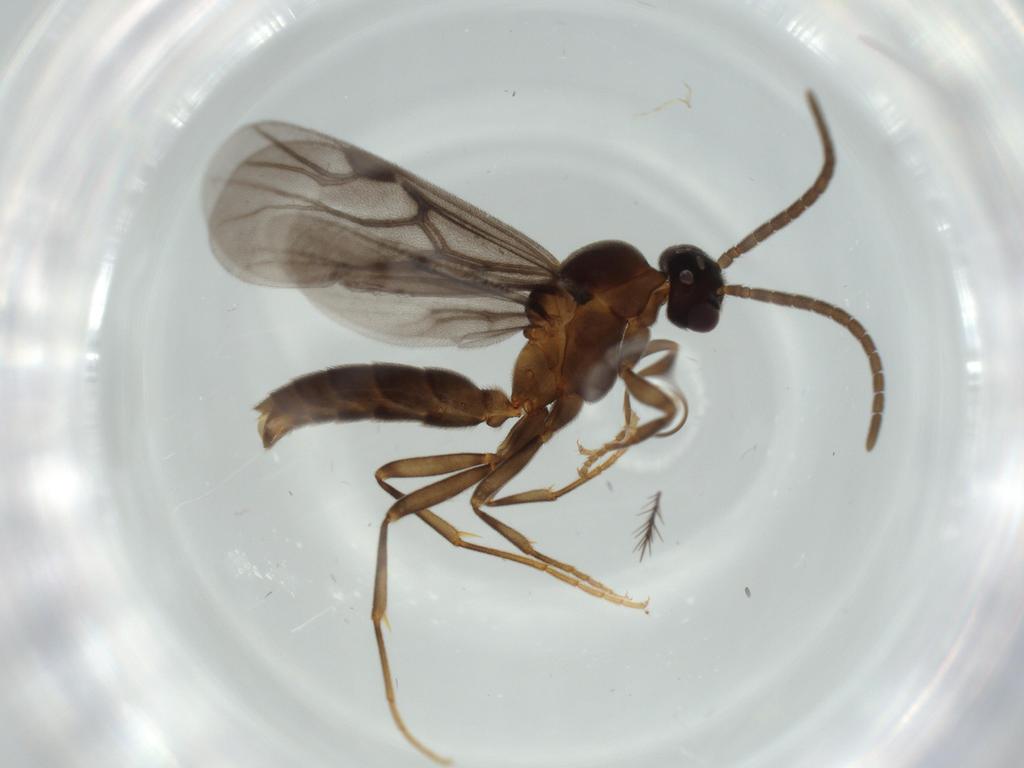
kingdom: Animalia
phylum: Arthropoda
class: Insecta
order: Hymenoptera
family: Formicidae
